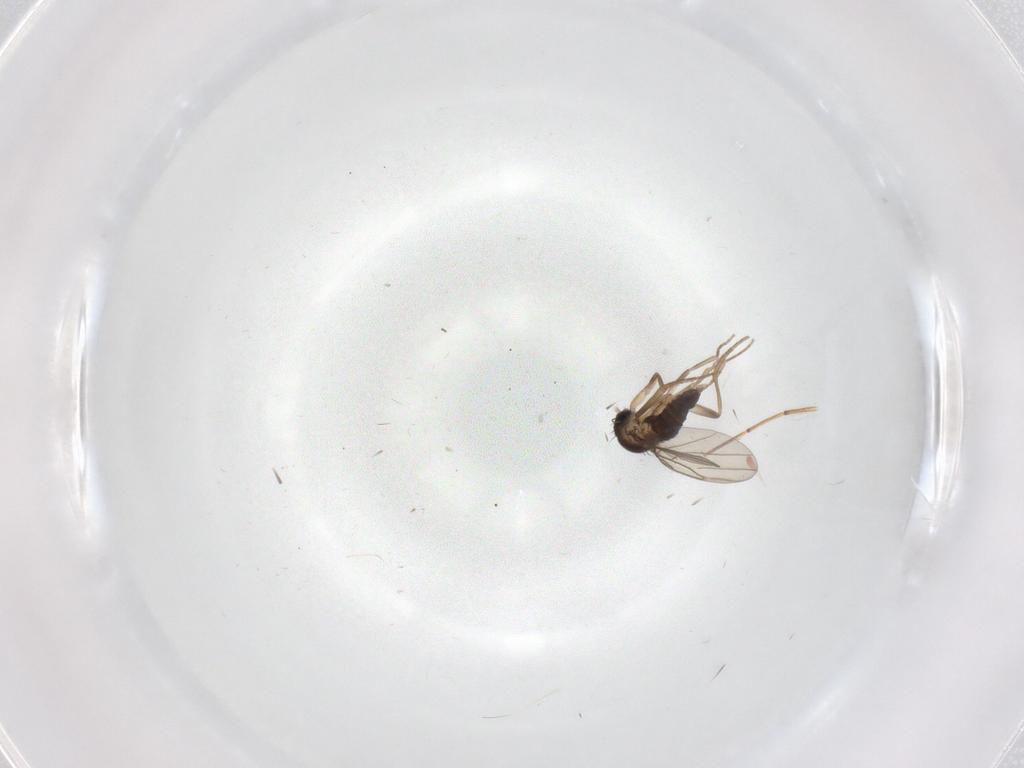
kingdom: Animalia
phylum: Arthropoda
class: Insecta
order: Diptera
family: Phoridae
